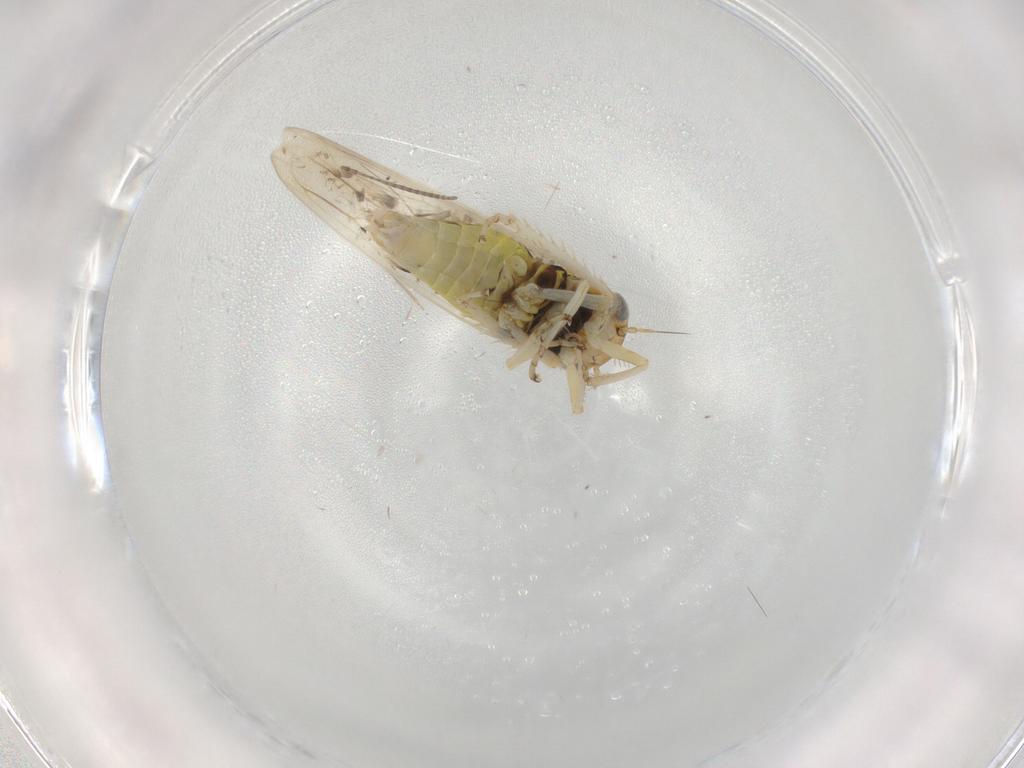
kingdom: Animalia
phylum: Arthropoda
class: Insecta
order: Hemiptera
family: Cicadellidae
